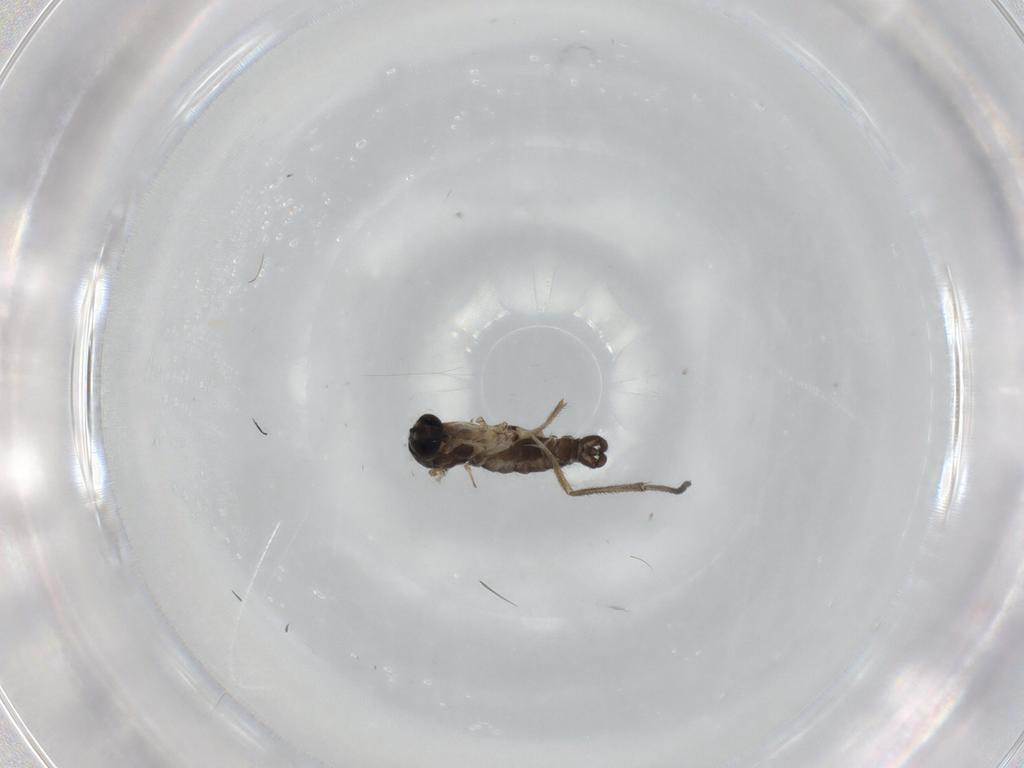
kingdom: Animalia
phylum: Arthropoda
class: Insecta
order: Diptera
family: Sciaridae
